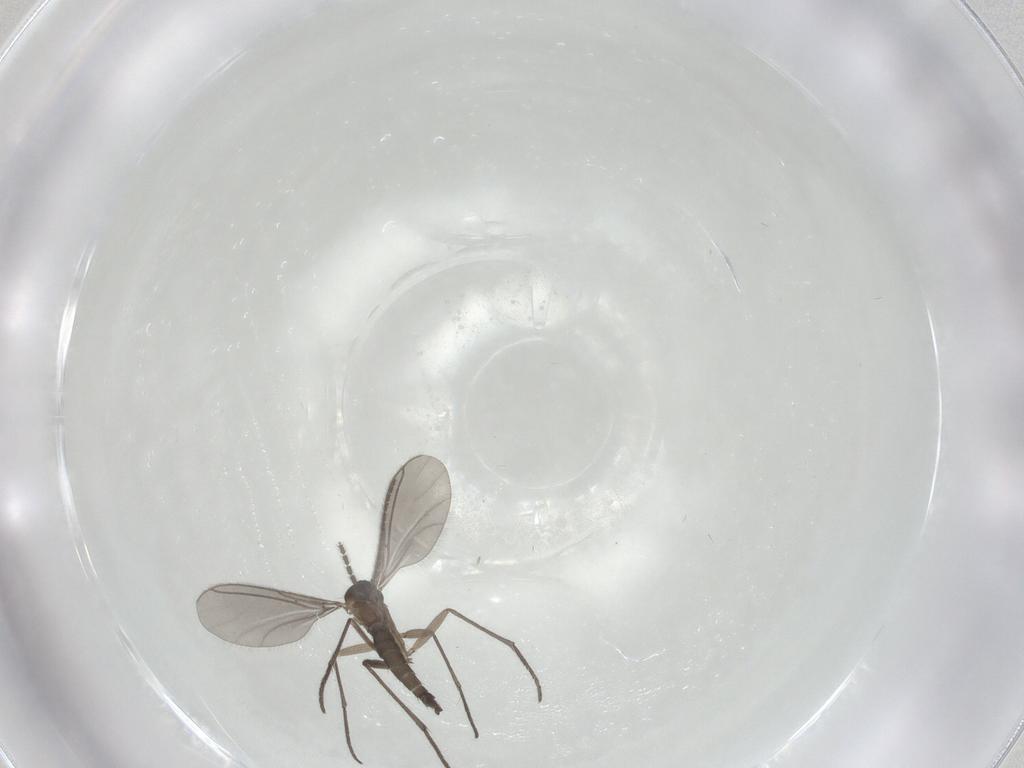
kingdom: Animalia
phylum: Arthropoda
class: Insecta
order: Diptera
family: Sciaridae
